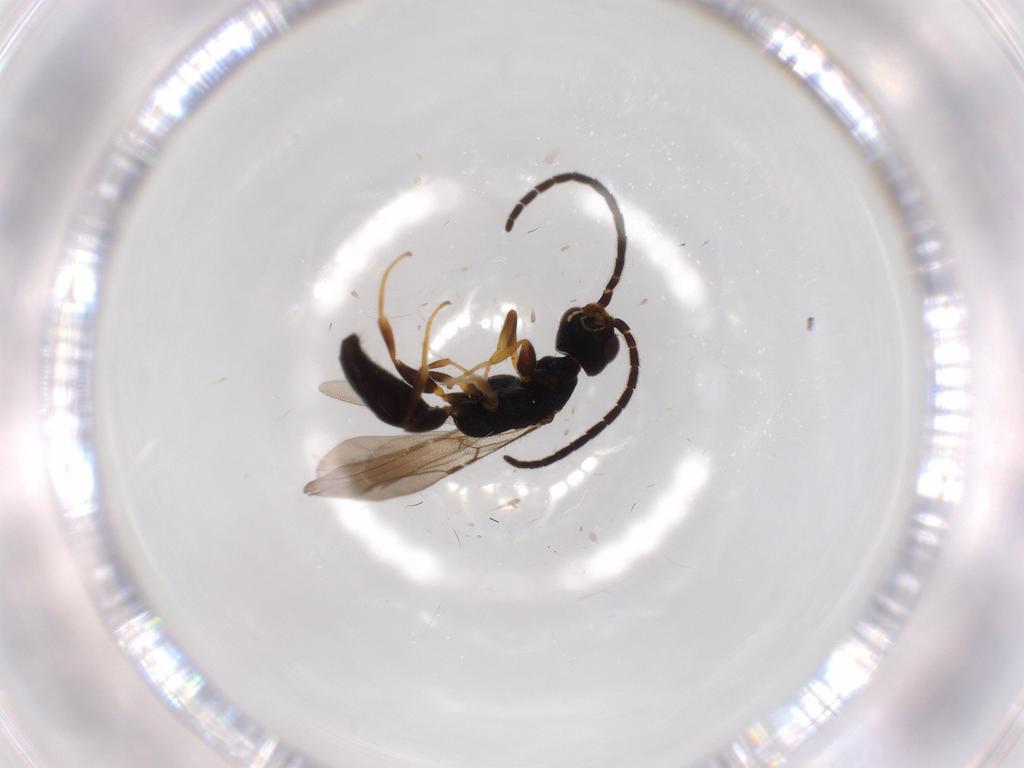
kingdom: Animalia
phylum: Arthropoda
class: Insecta
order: Hymenoptera
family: Bethylidae
